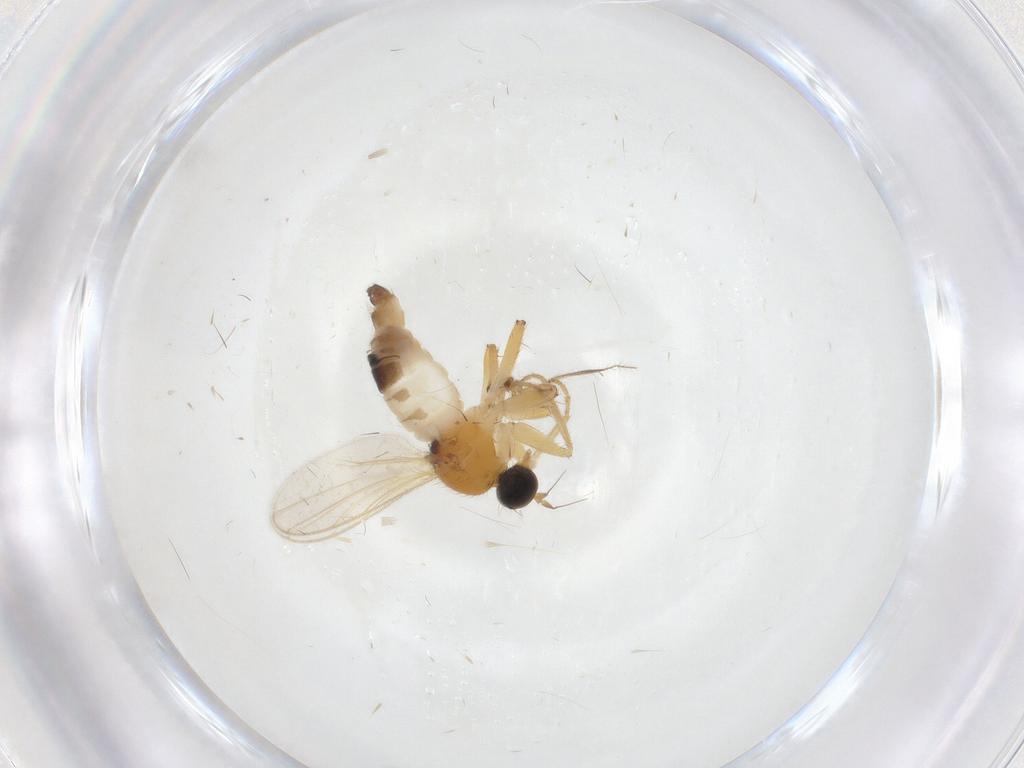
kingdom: Animalia
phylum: Arthropoda
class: Insecta
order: Diptera
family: Hybotidae
